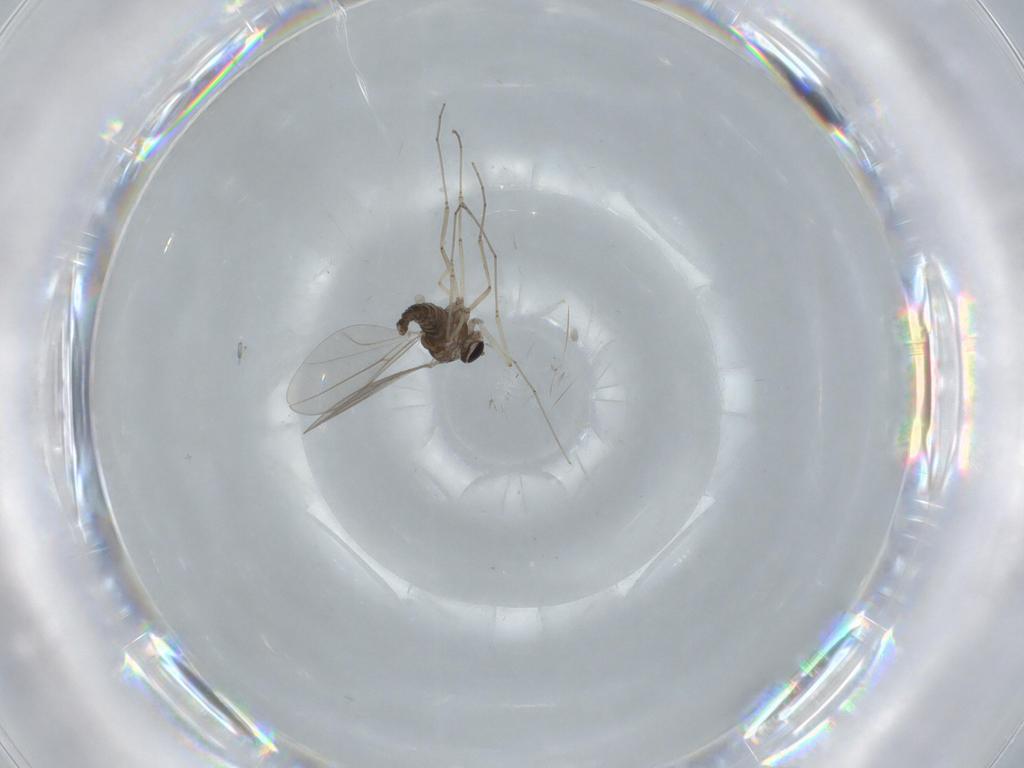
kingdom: Animalia
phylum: Arthropoda
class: Insecta
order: Diptera
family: Cecidomyiidae
